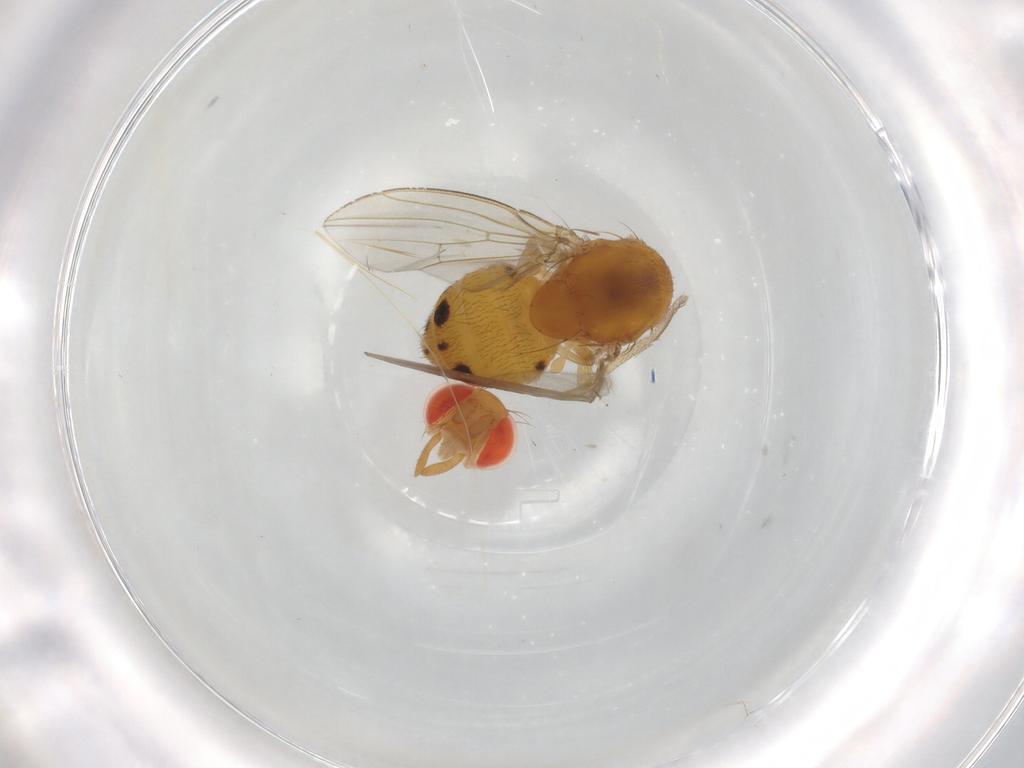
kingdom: Animalia
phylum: Arthropoda
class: Insecta
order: Diptera
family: Drosophilidae
